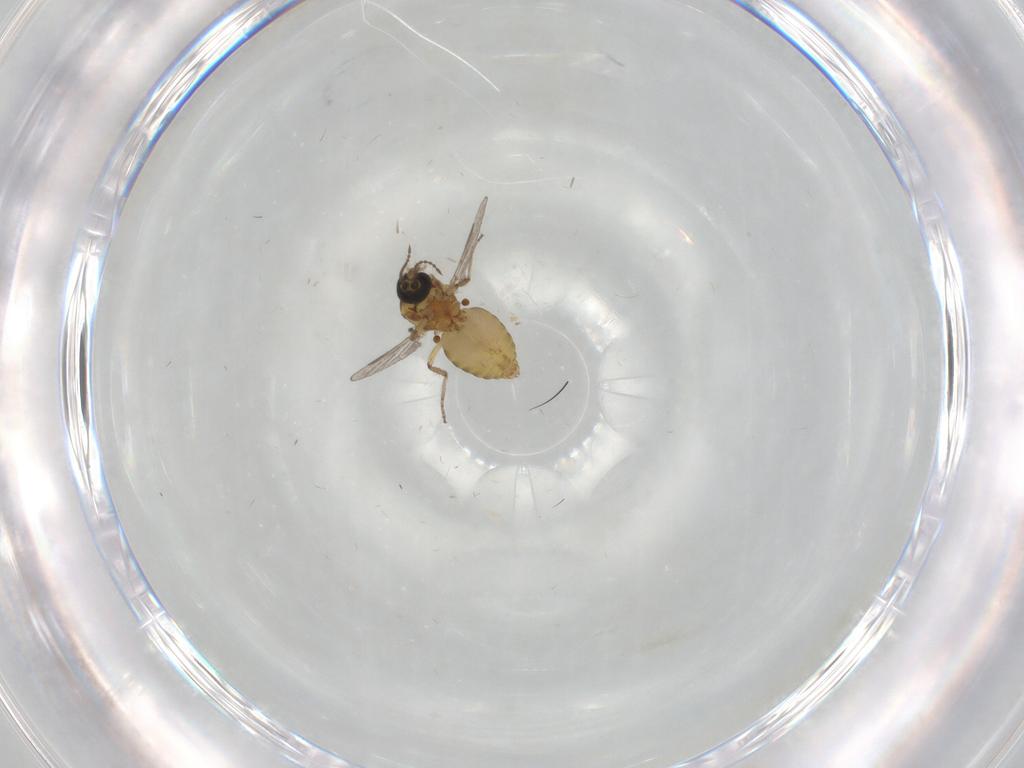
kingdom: Animalia
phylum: Arthropoda
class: Insecta
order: Diptera
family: Ceratopogonidae
